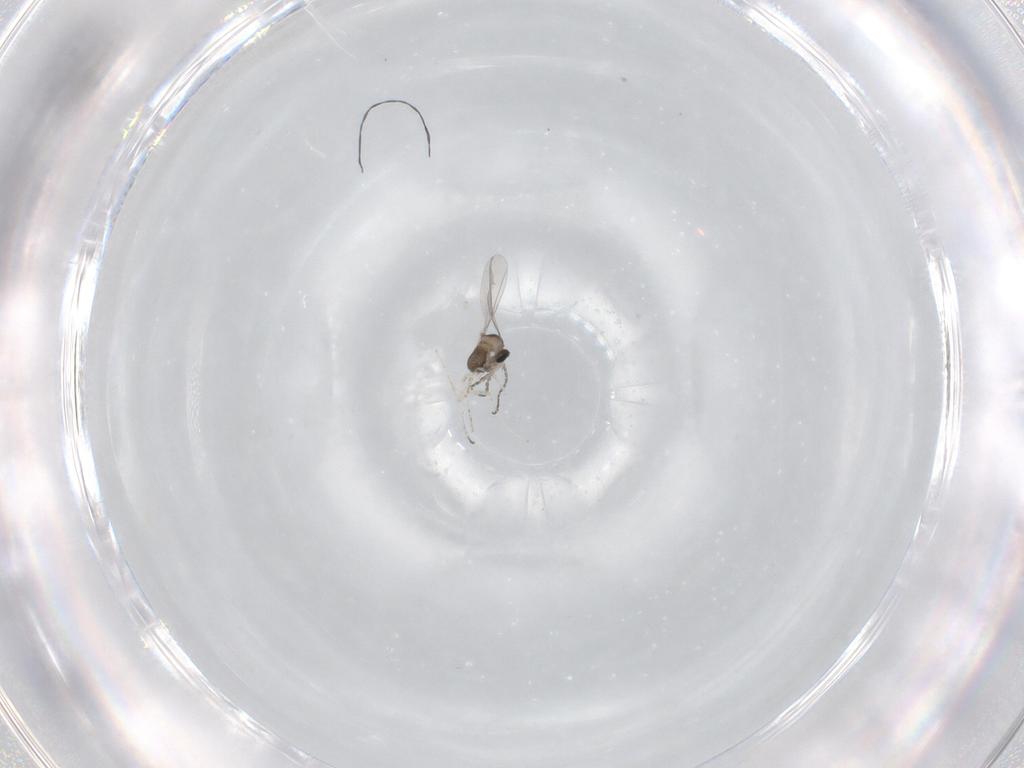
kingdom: Animalia
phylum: Arthropoda
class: Insecta
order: Diptera
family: Cecidomyiidae
